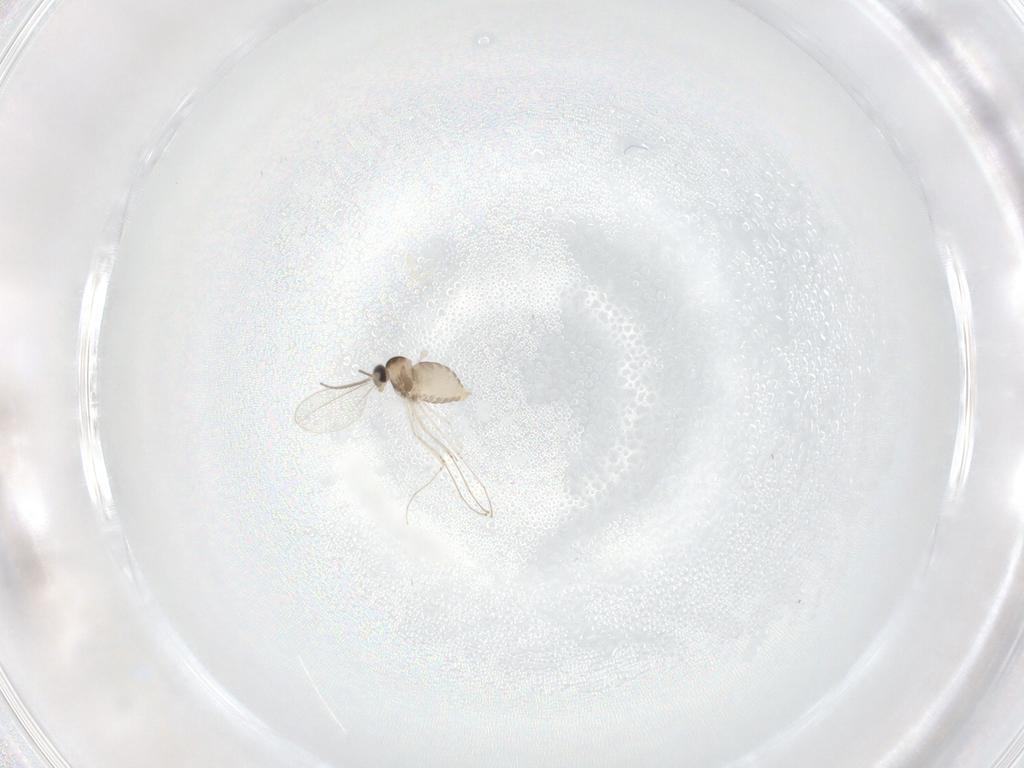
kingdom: Animalia
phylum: Arthropoda
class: Insecta
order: Diptera
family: Cecidomyiidae
